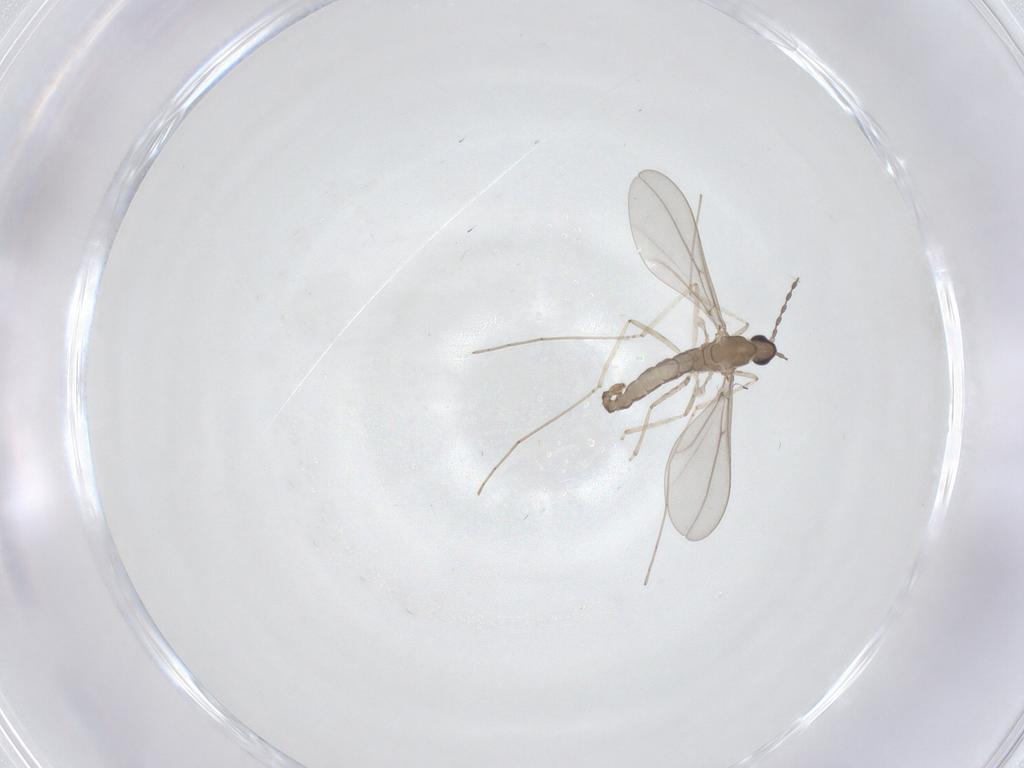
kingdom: Animalia
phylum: Arthropoda
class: Insecta
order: Diptera
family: Cecidomyiidae
